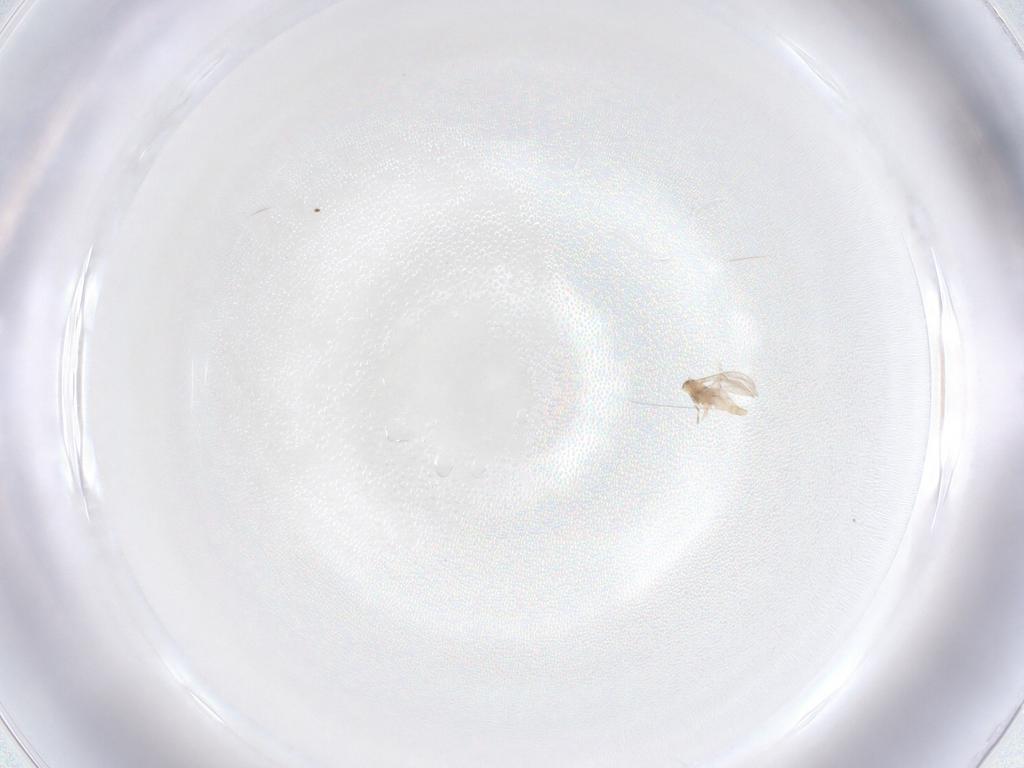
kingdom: Animalia
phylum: Arthropoda
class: Insecta
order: Diptera
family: Cecidomyiidae
